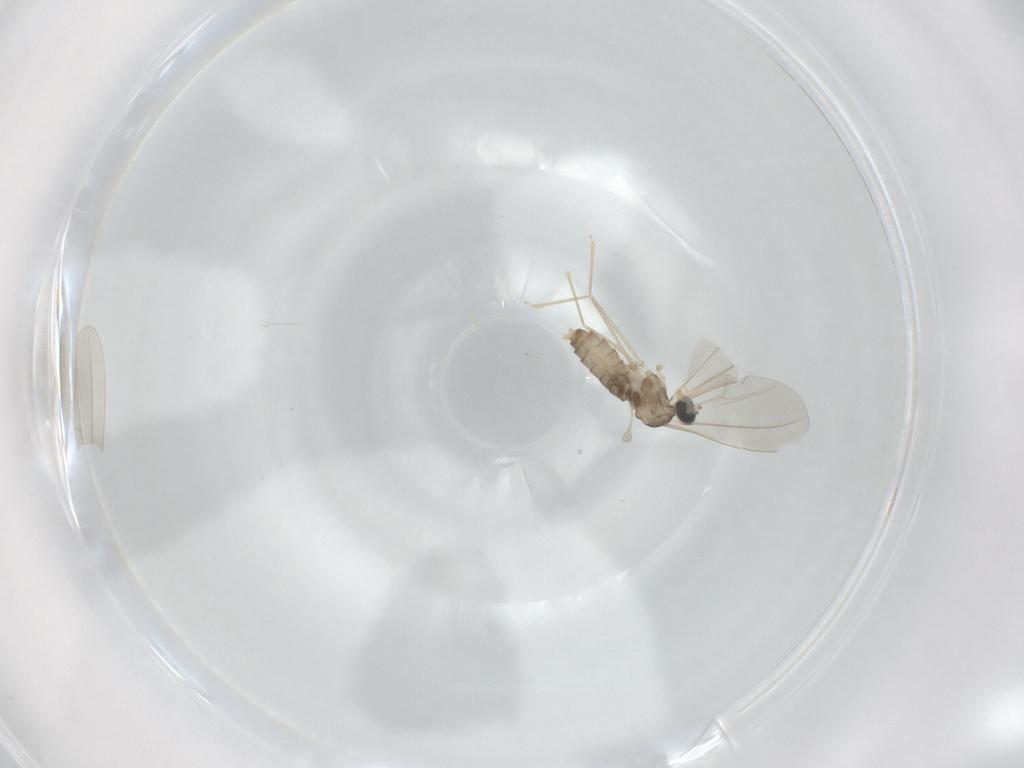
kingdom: Animalia
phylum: Arthropoda
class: Insecta
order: Diptera
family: Cecidomyiidae
